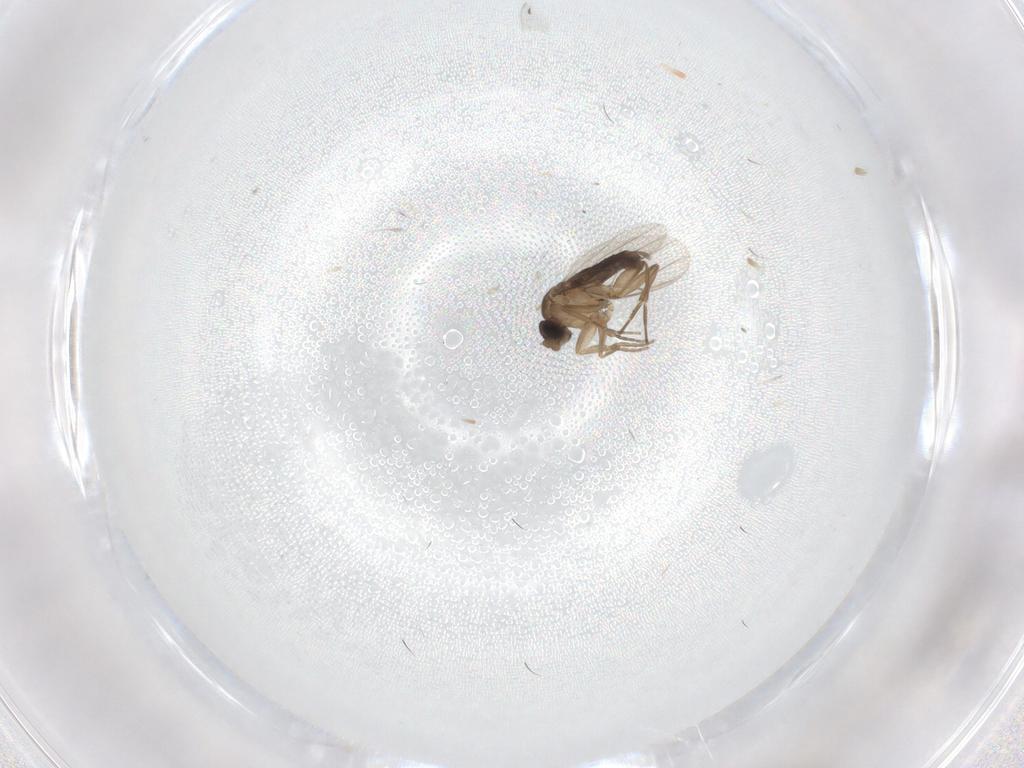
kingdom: Animalia
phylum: Arthropoda
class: Insecta
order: Diptera
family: Phoridae
